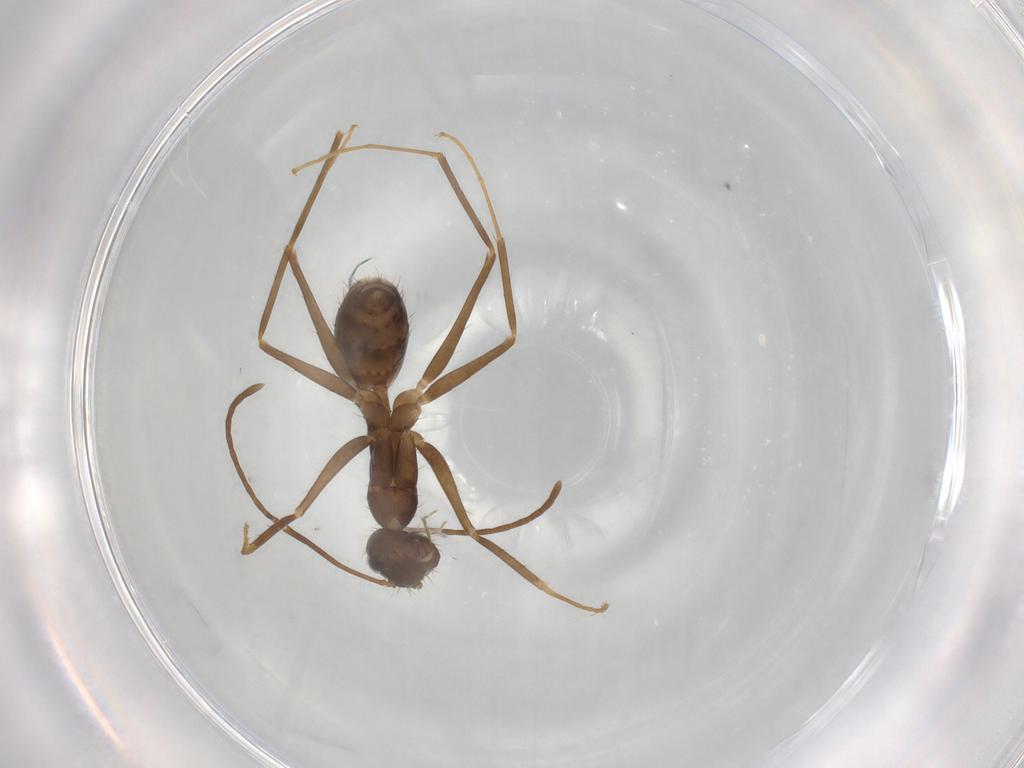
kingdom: Animalia
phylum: Arthropoda
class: Insecta
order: Hymenoptera
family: Formicidae
